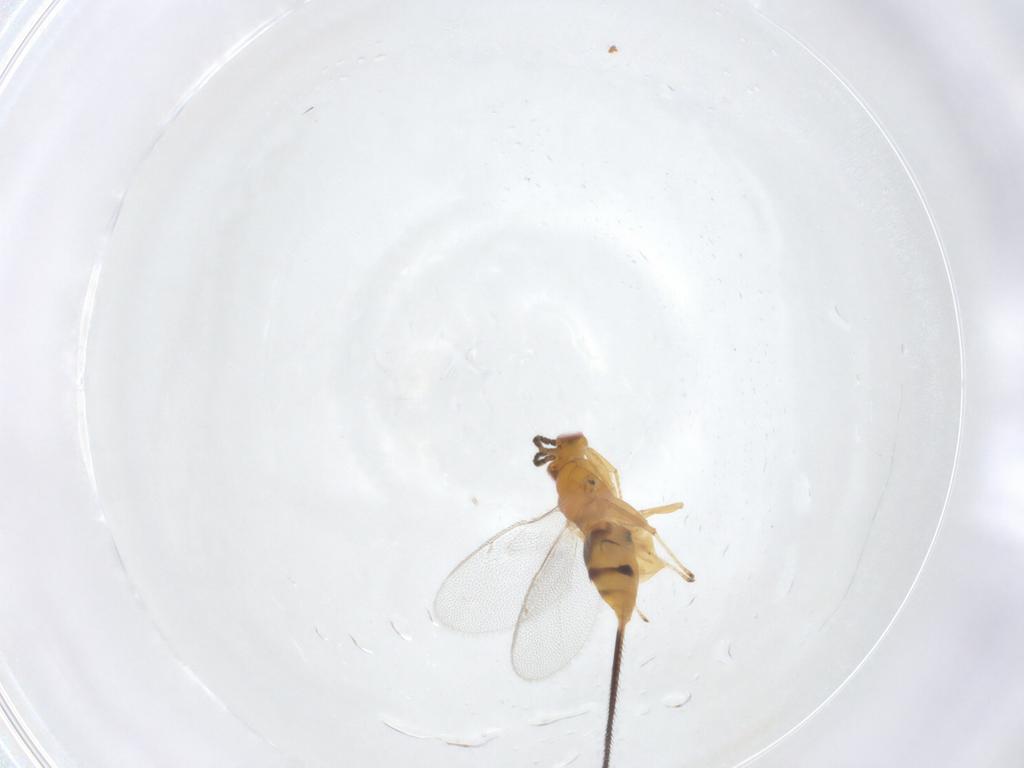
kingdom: Animalia
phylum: Arthropoda
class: Insecta
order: Hymenoptera
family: Pteromalidae
